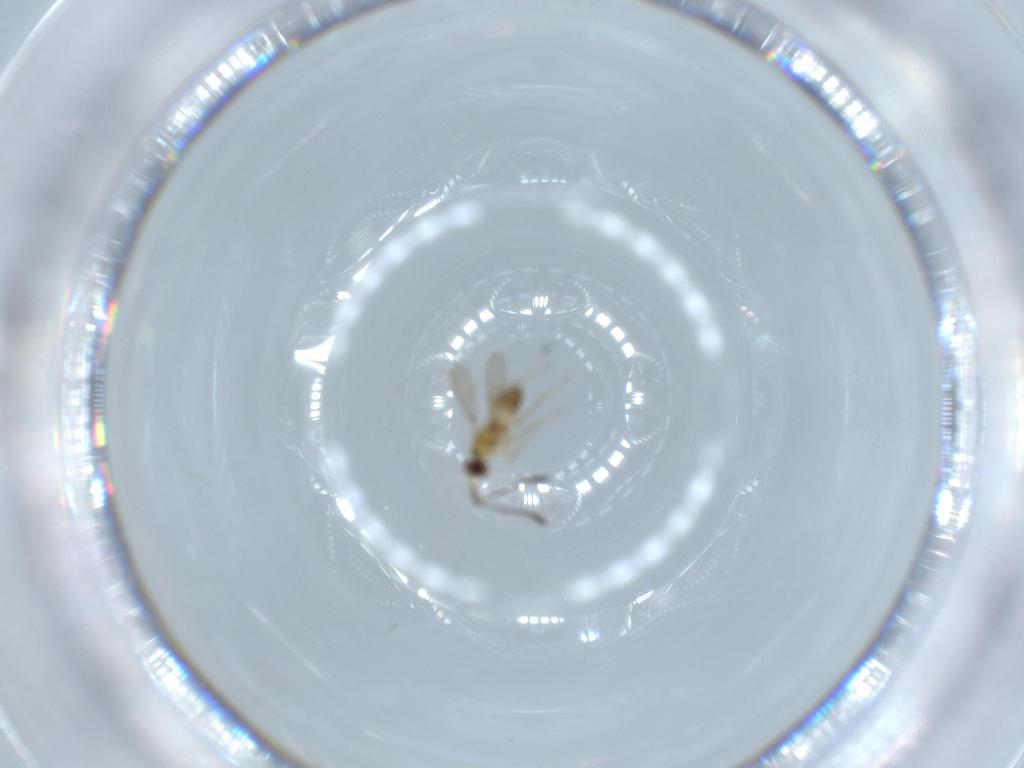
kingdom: Animalia
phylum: Arthropoda
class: Insecta
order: Hymenoptera
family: Mymaridae
